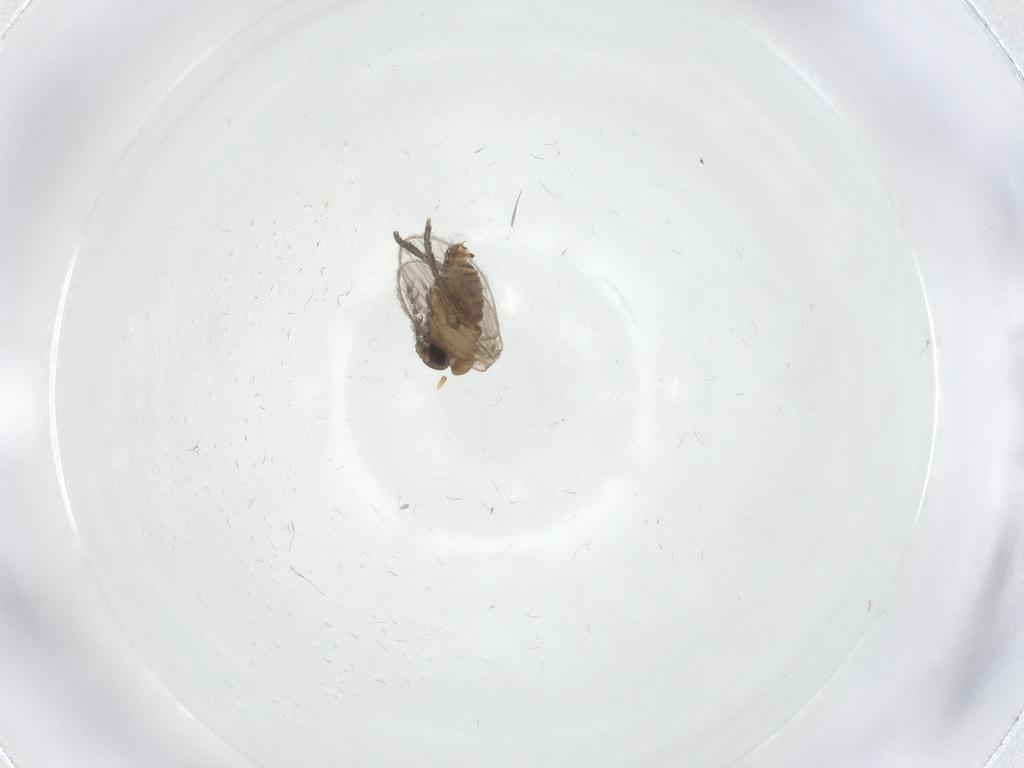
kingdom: Animalia
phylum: Arthropoda
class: Insecta
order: Diptera
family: Psychodidae
